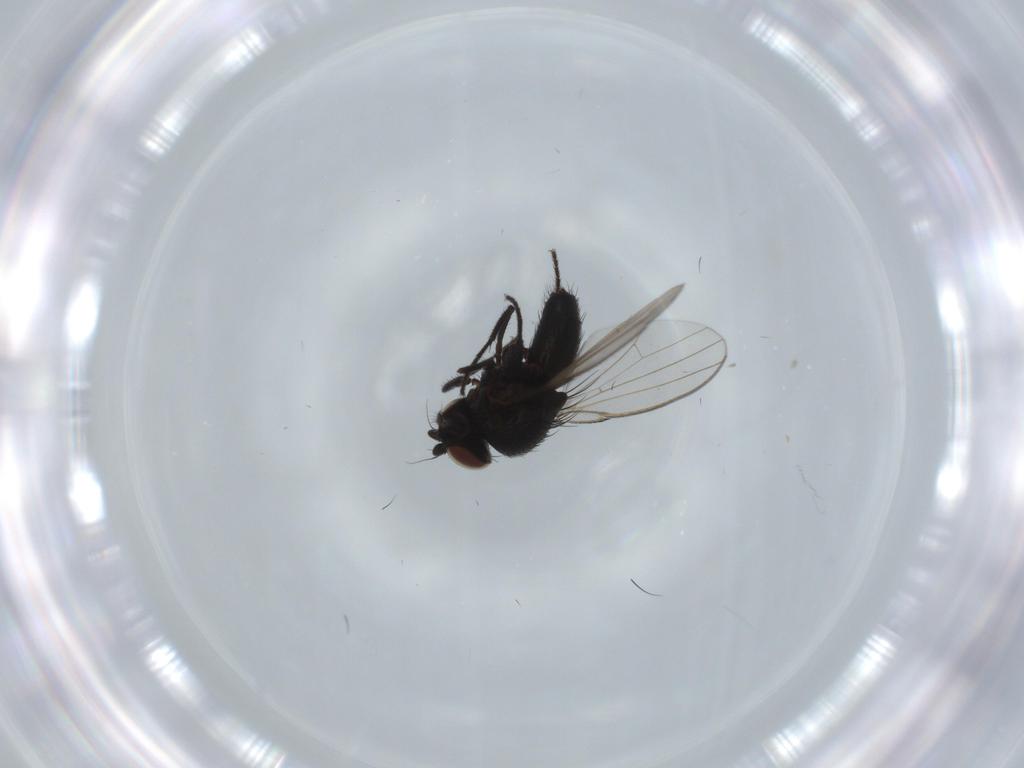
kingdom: Animalia
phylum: Arthropoda
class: Insecta
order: Diptera
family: Milichiidae
